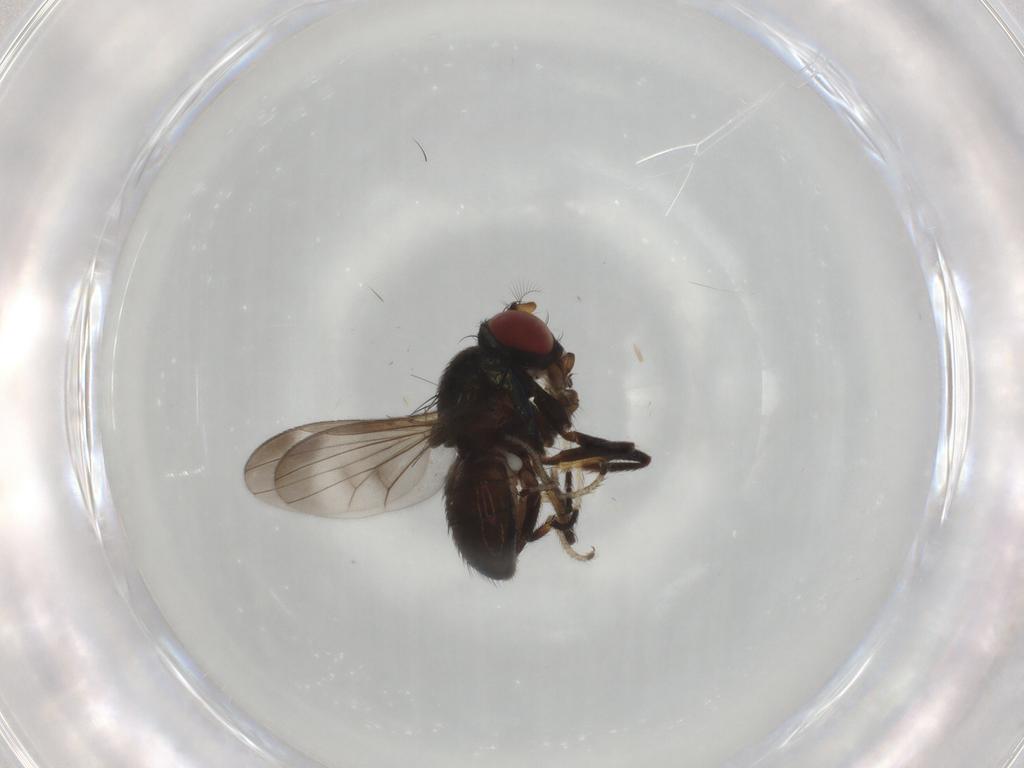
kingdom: Animalia
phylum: Arthropoda
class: Insecta
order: Diptera
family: Ephydridae
